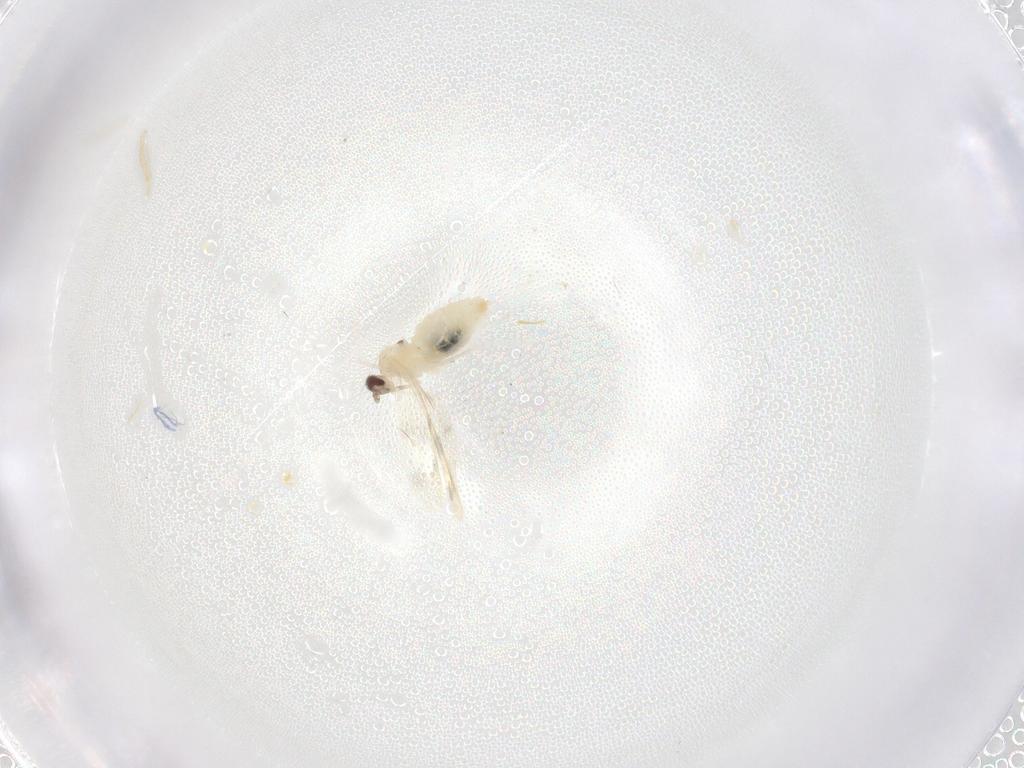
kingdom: Animalia
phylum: Arthropoda
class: Insecta
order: Diptera
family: Cecidomyiidae
